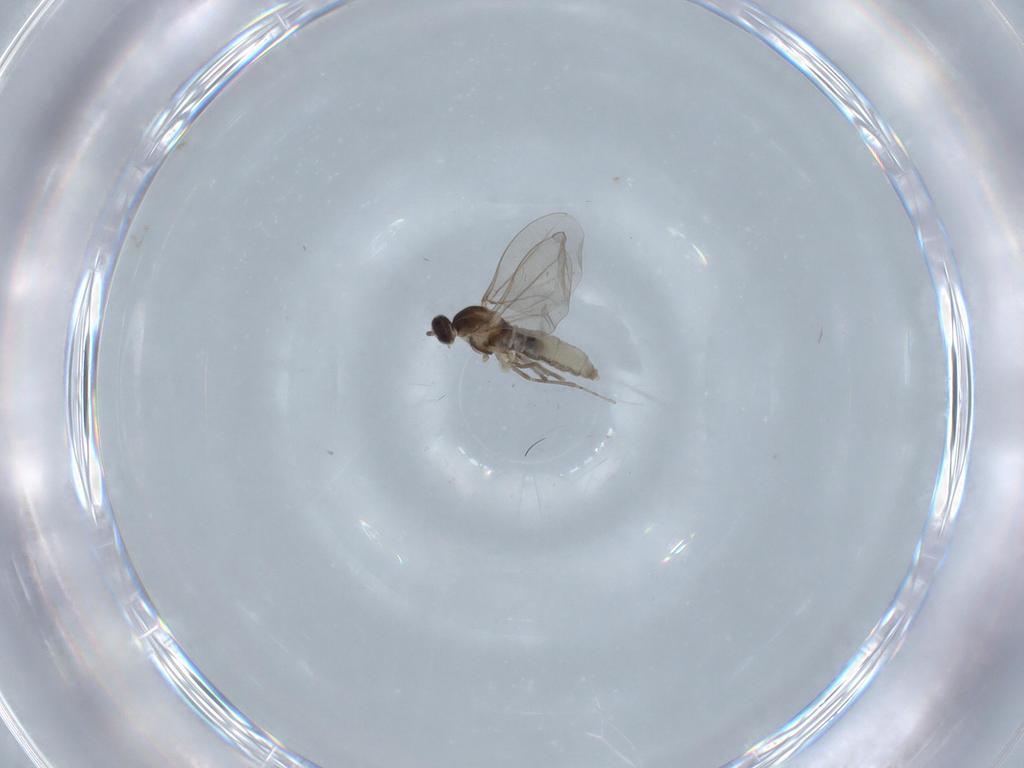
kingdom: Animalia
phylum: Arthropoda
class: Insecta
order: Diptera
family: Cecidomyiidae
